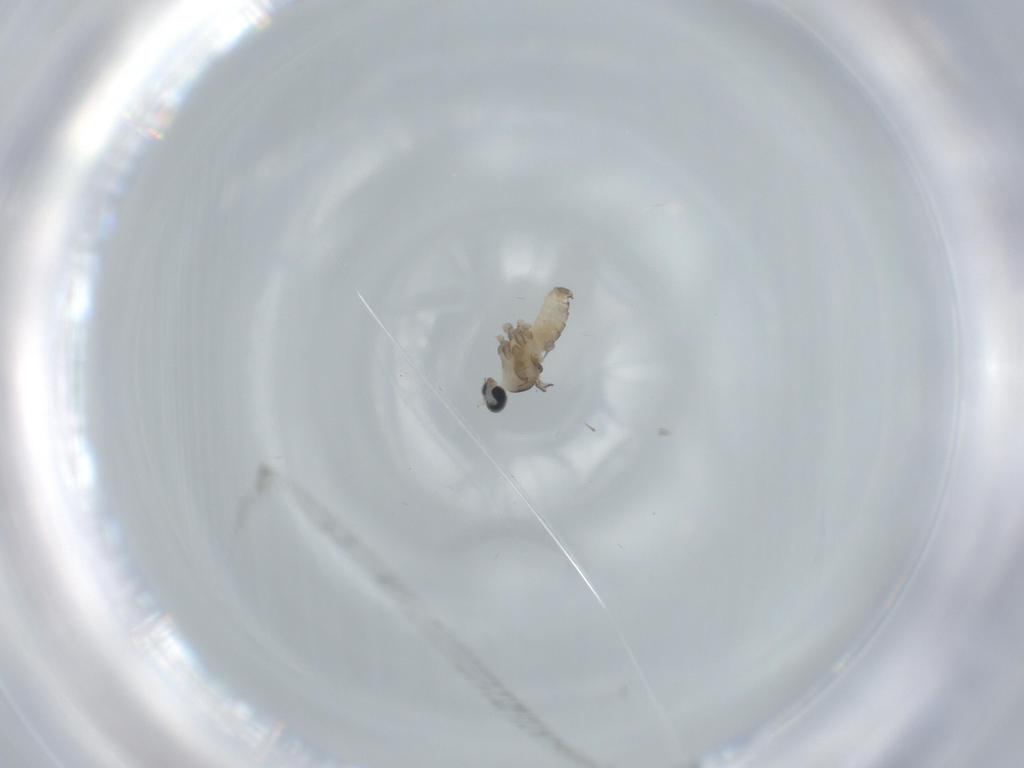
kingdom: Animalia
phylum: Arthropoda
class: Insecta
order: Diptera
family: Cecidomyiidae
